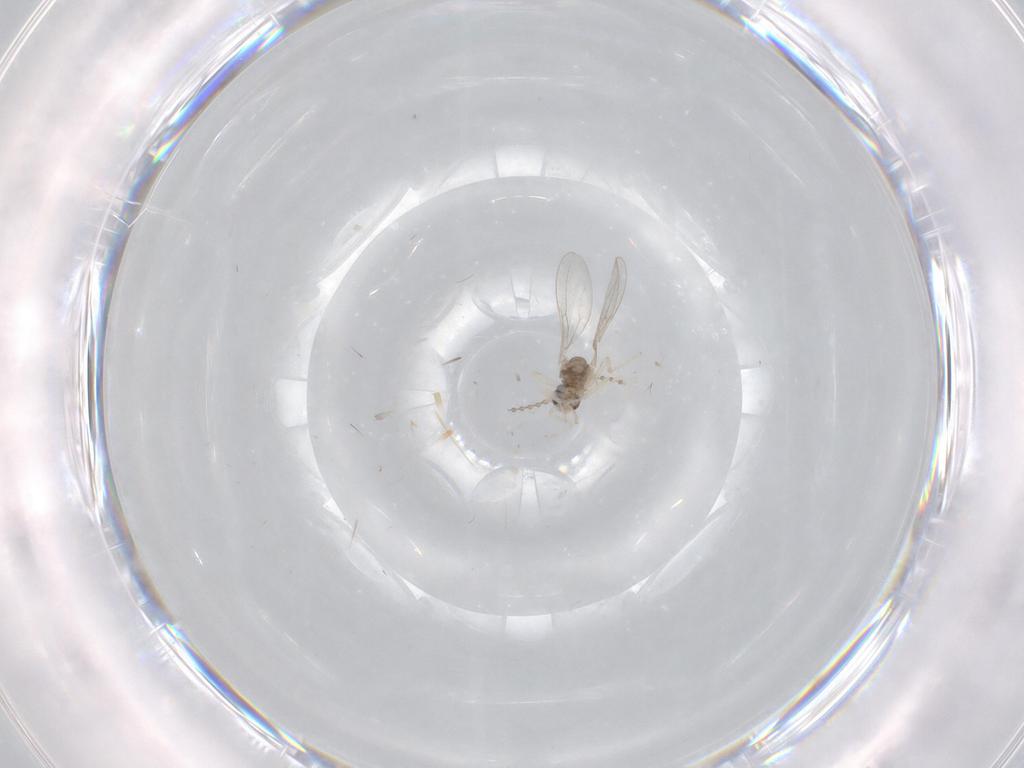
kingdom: Animalia
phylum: Arthropoda
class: Insecta
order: Diptera
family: Cecidomyiidae
